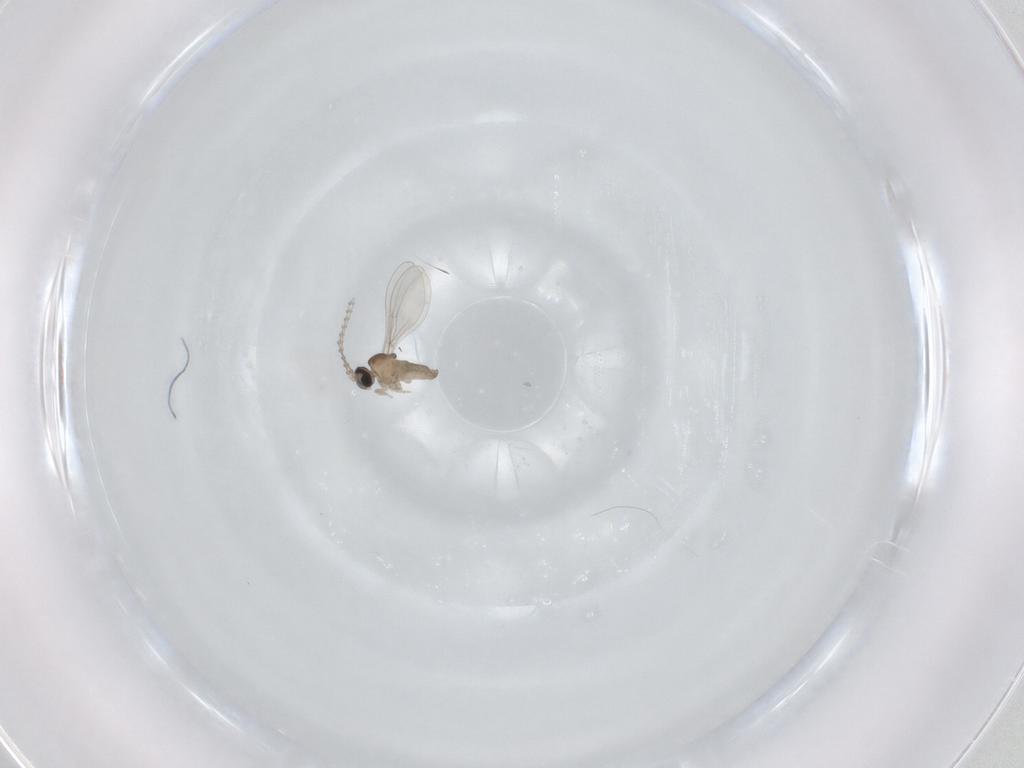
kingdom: Animalia
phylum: Arthropoda
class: Insecta
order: Diptera
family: Cecidomyiidae
